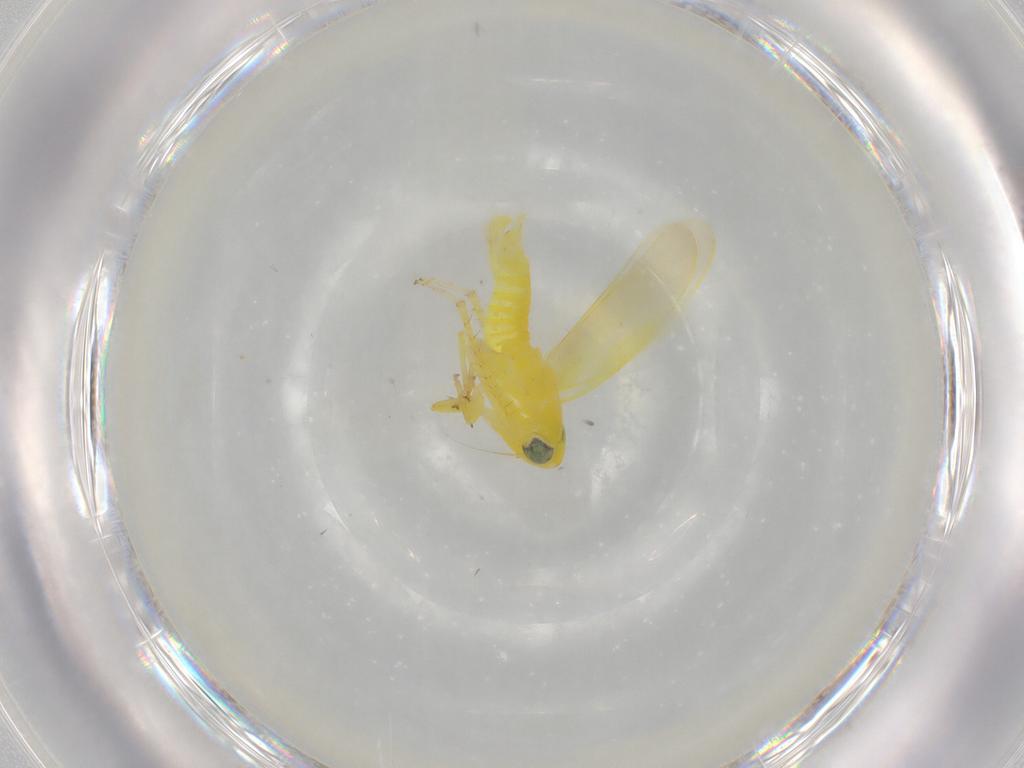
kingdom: Animalia
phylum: Arthropoda
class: Insecta
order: Hemiptera
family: Cicadellidae
